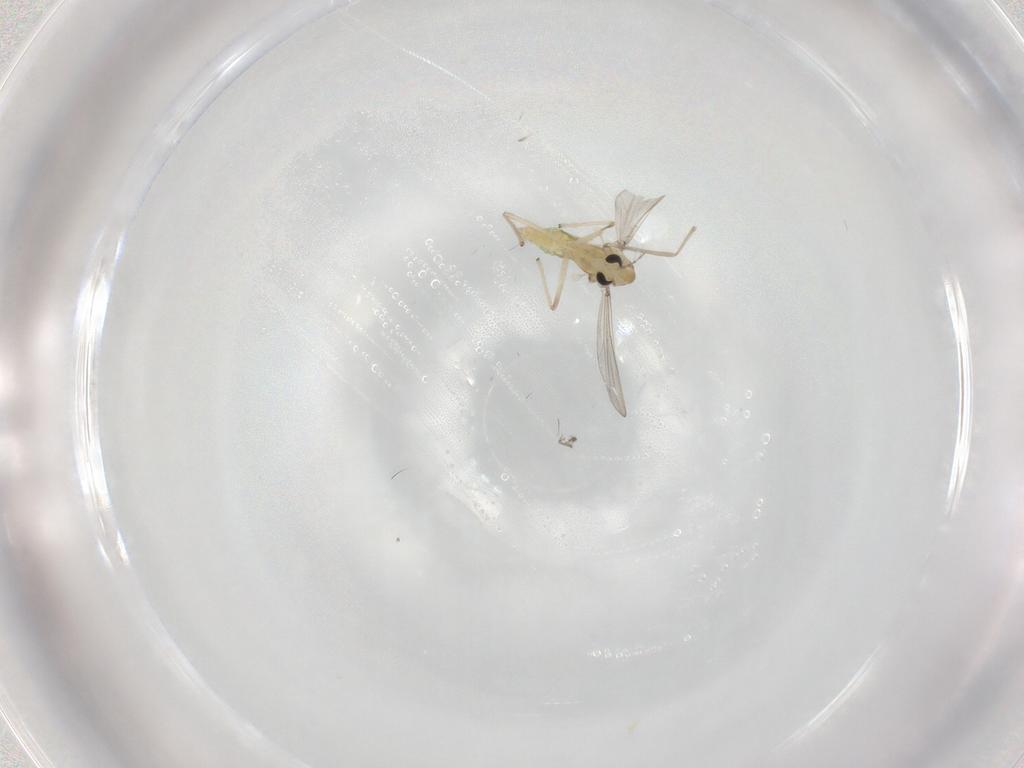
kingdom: Animalia
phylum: Arthropoda
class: Insecta
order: Diptera
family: Chironomidae
